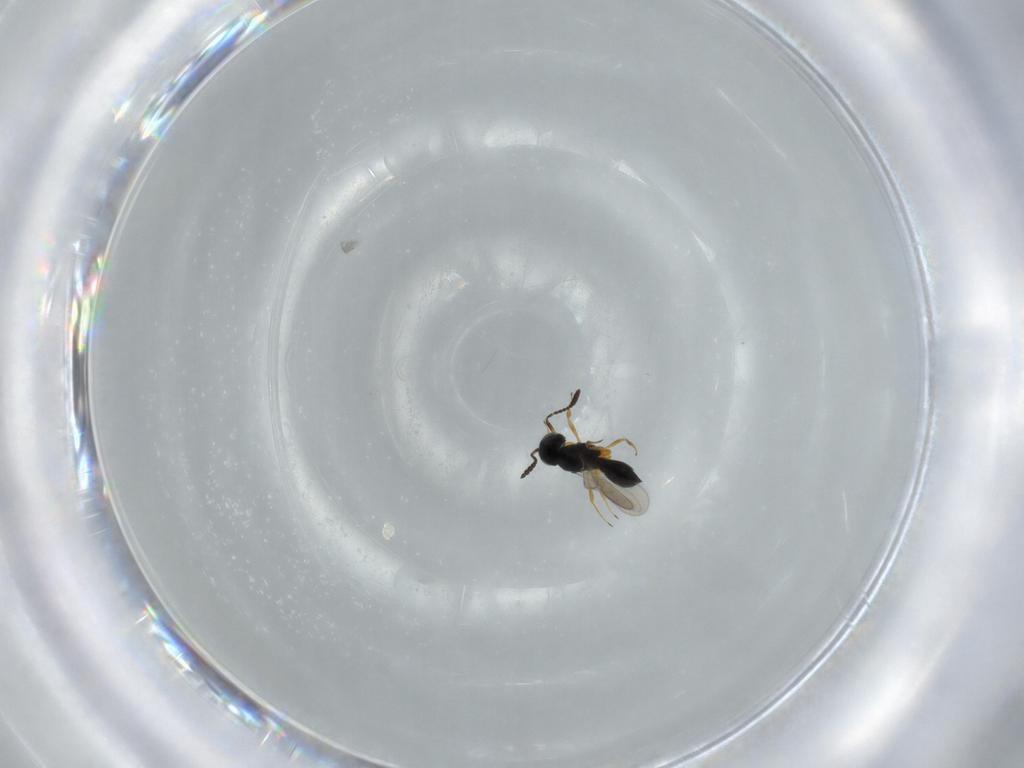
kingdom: Animalia
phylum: Arthropoda
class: Insecta
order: Hymenoptera
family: Scelionidae
